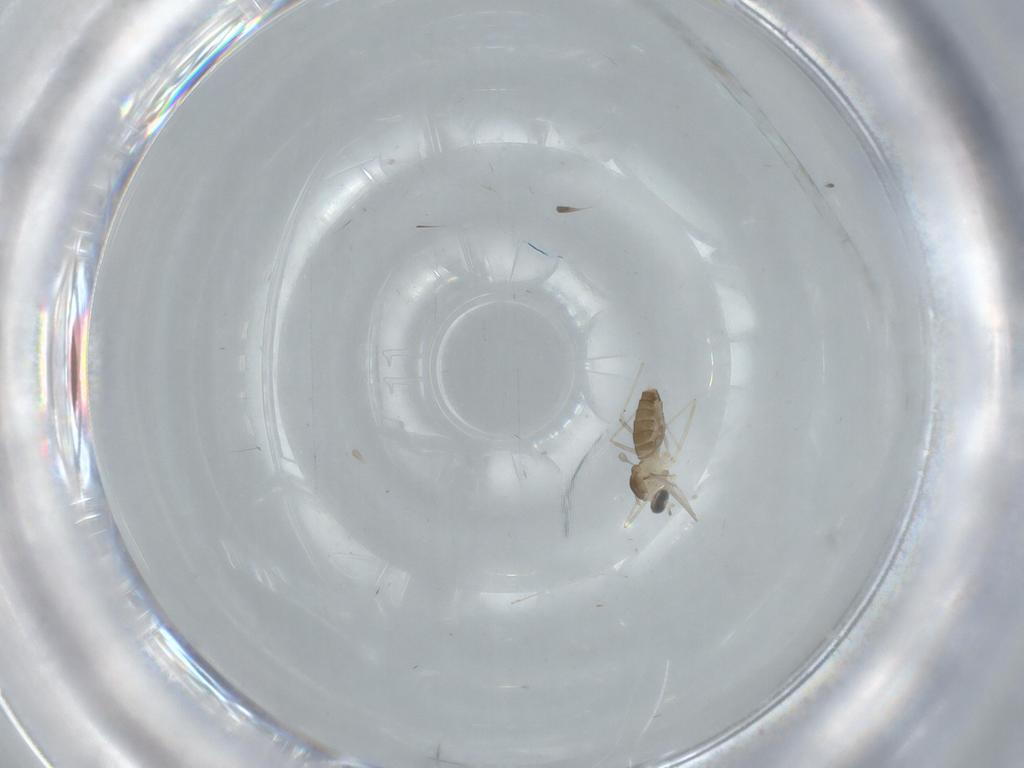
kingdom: Animalia
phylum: Arthropoda
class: Insecta
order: Diptera
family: Cecidomyiidae
